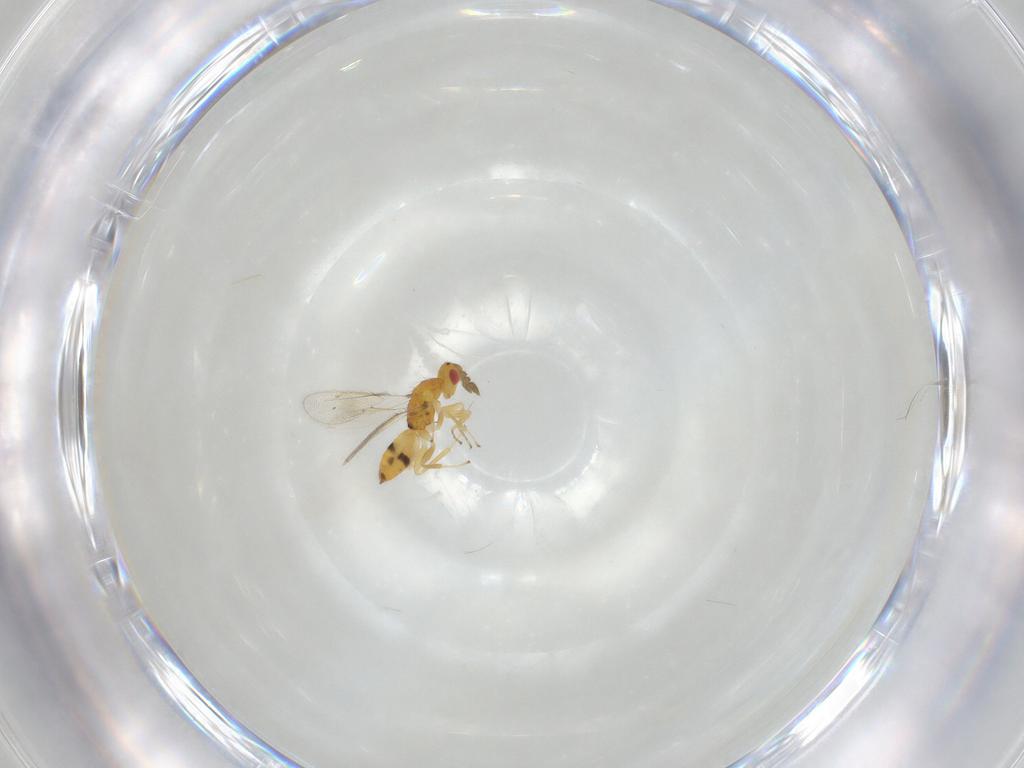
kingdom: Animalia
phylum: Arthropoda
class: Insecta
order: Hymenoptera
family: Eulophidae
